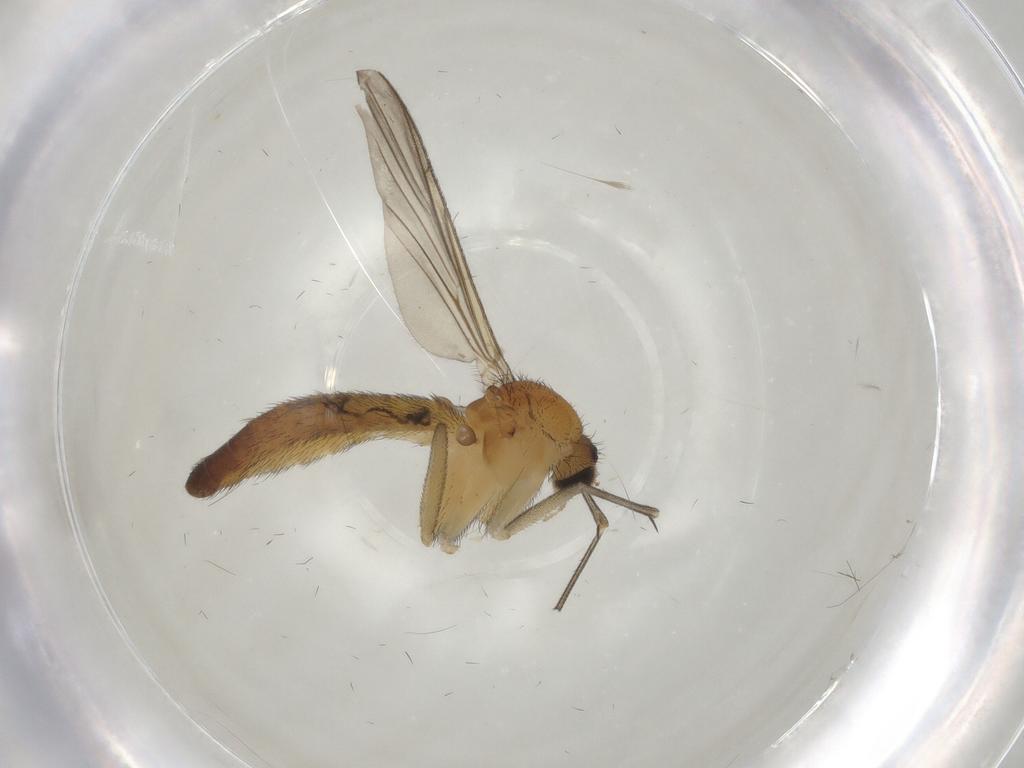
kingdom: Animalia
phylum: Arthropoda
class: Insecta
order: Diptera
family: Keroplatidae
